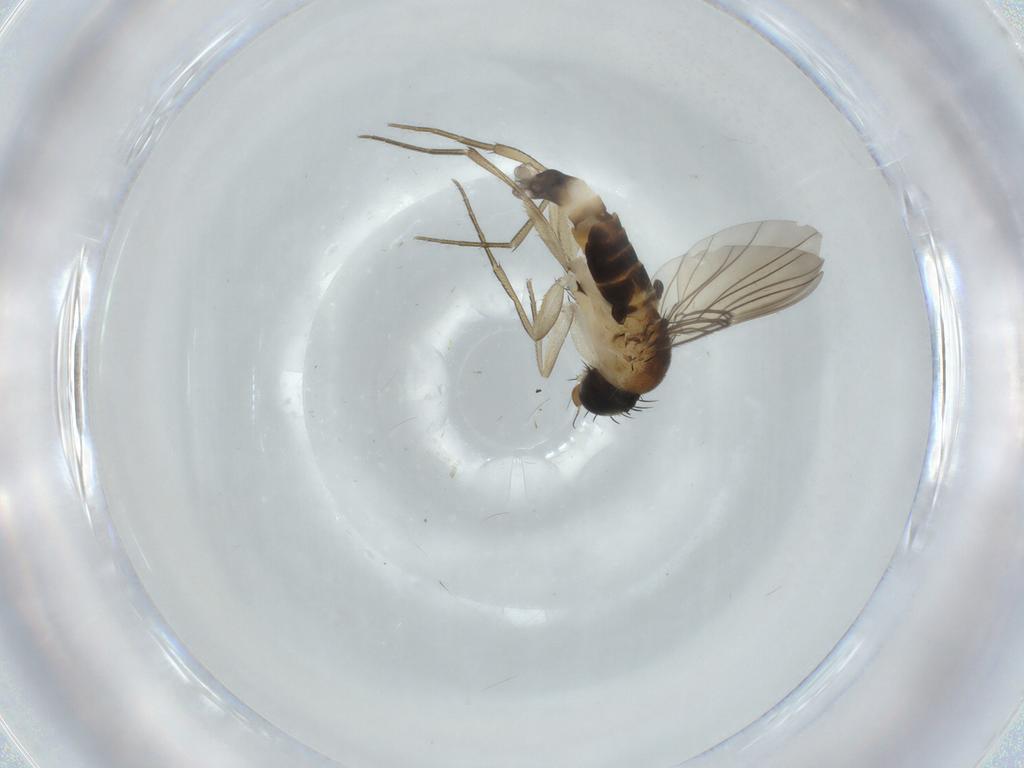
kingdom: Animalia
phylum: Arthropoda
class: Insecta
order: Diptera
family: Phoridae
